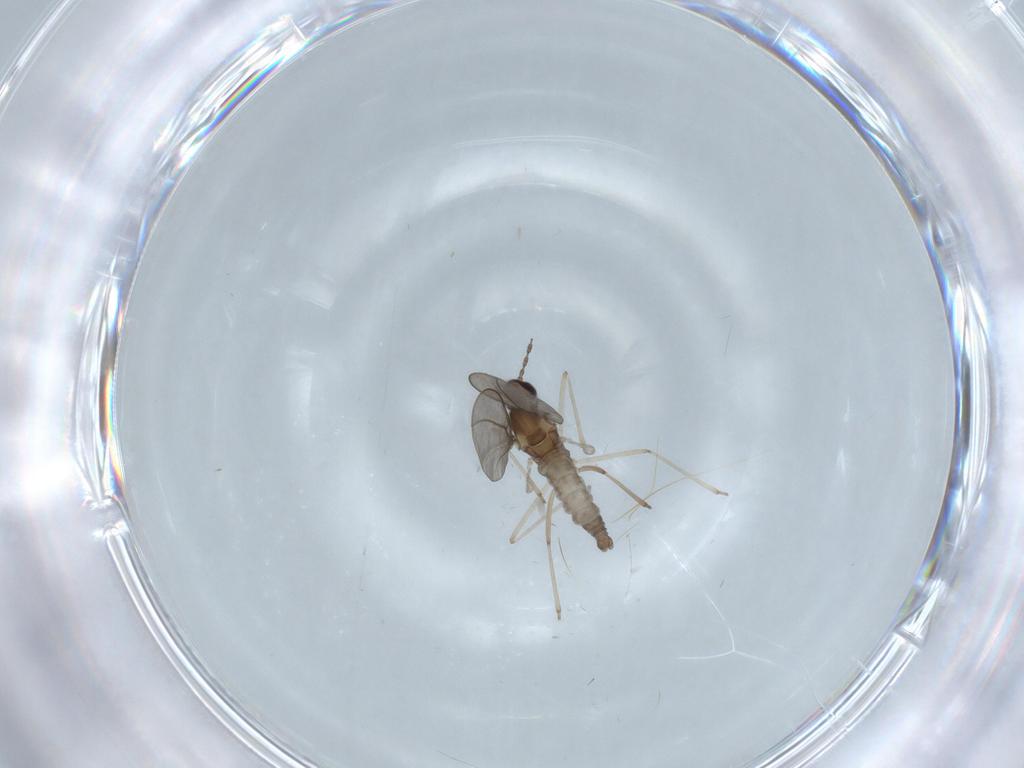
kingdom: Animalia
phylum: Arthropoda
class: Insecta
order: Diptera
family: Cecidomyiidae
